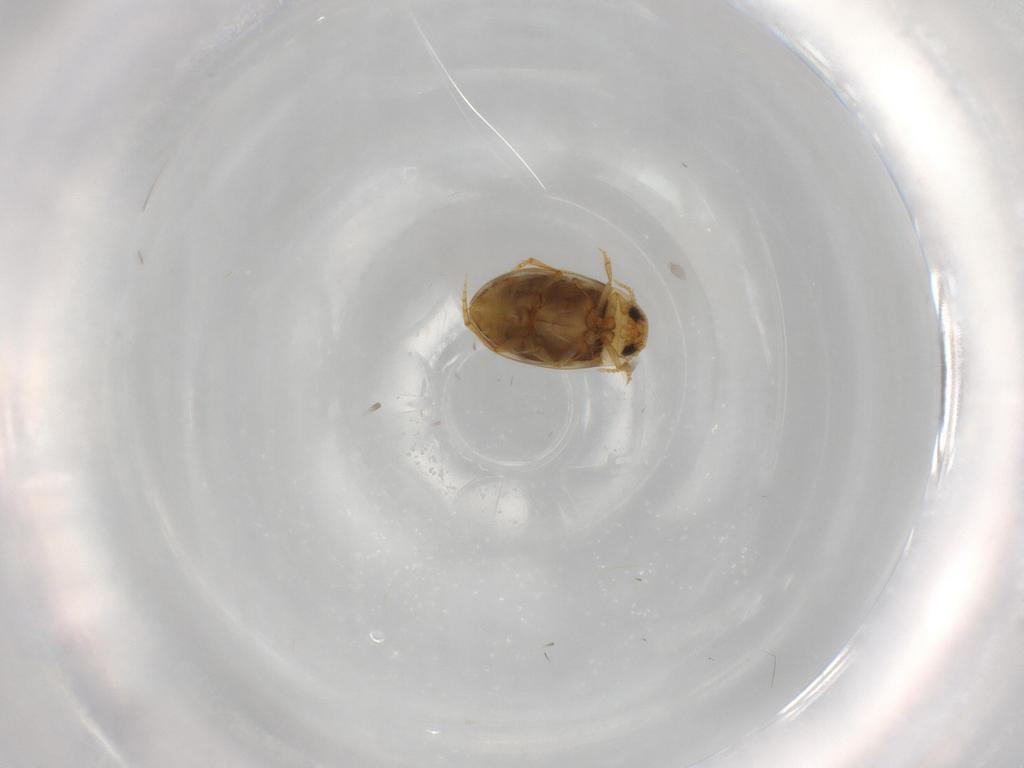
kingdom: Animalia
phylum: Arthropoda
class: Insecta
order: Coleoptera
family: Dytiscidae
